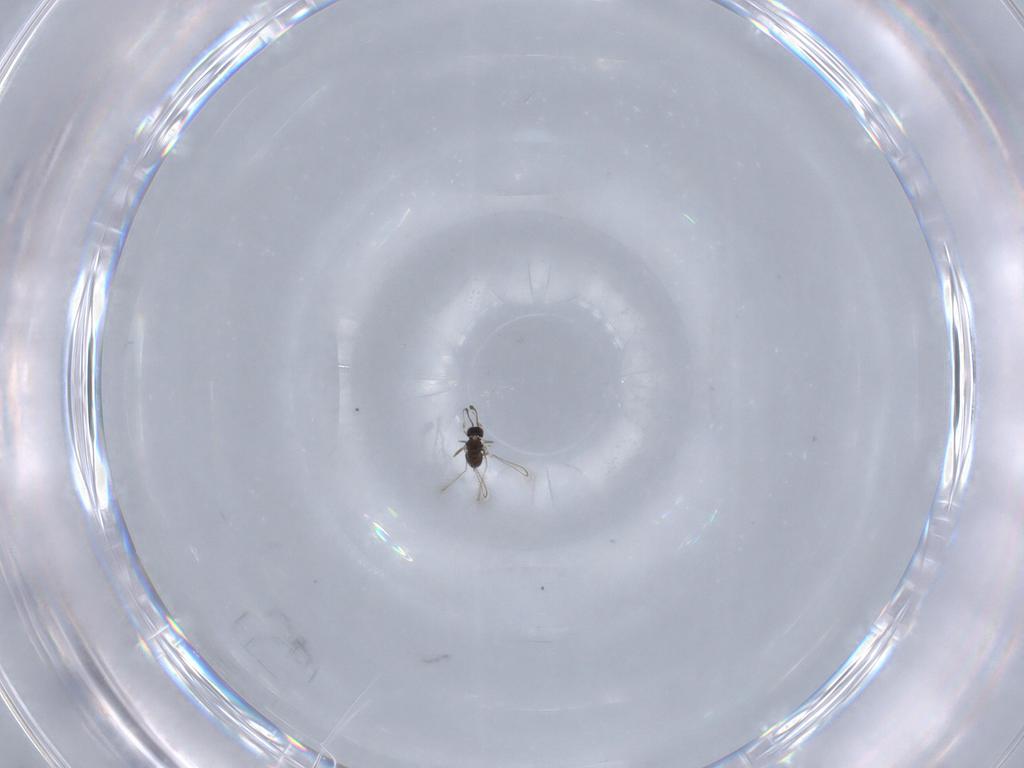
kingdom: Animalia
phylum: Arthropoda
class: Insecta
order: Hymenoptera
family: Mymaridae
